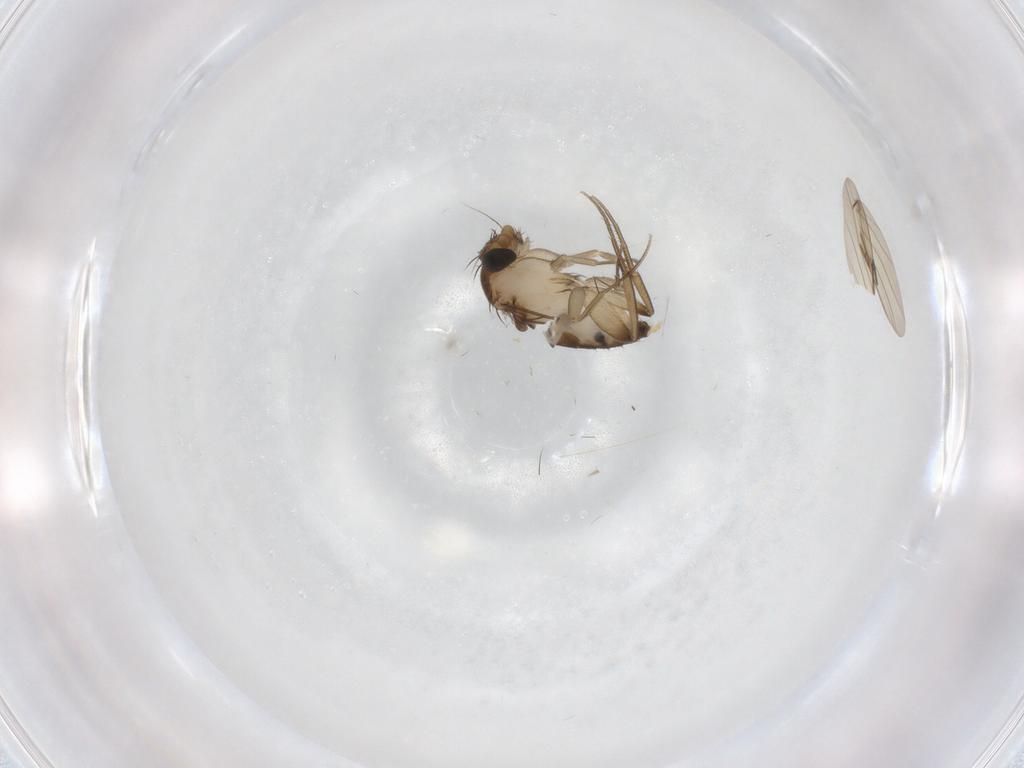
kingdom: Animalia
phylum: Arthropoda
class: Insecta
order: Diptera
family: Phoridae
